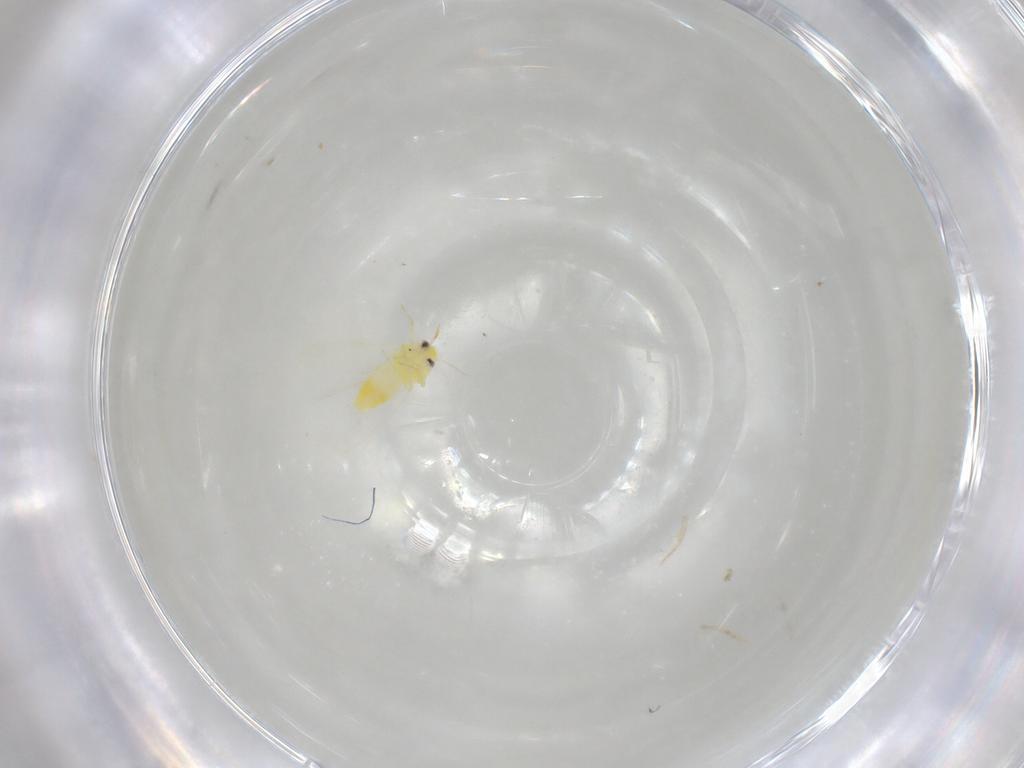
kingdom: Animalia
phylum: Arthropoda
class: Insecta
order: Hemiptera
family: Aleyrodidae
